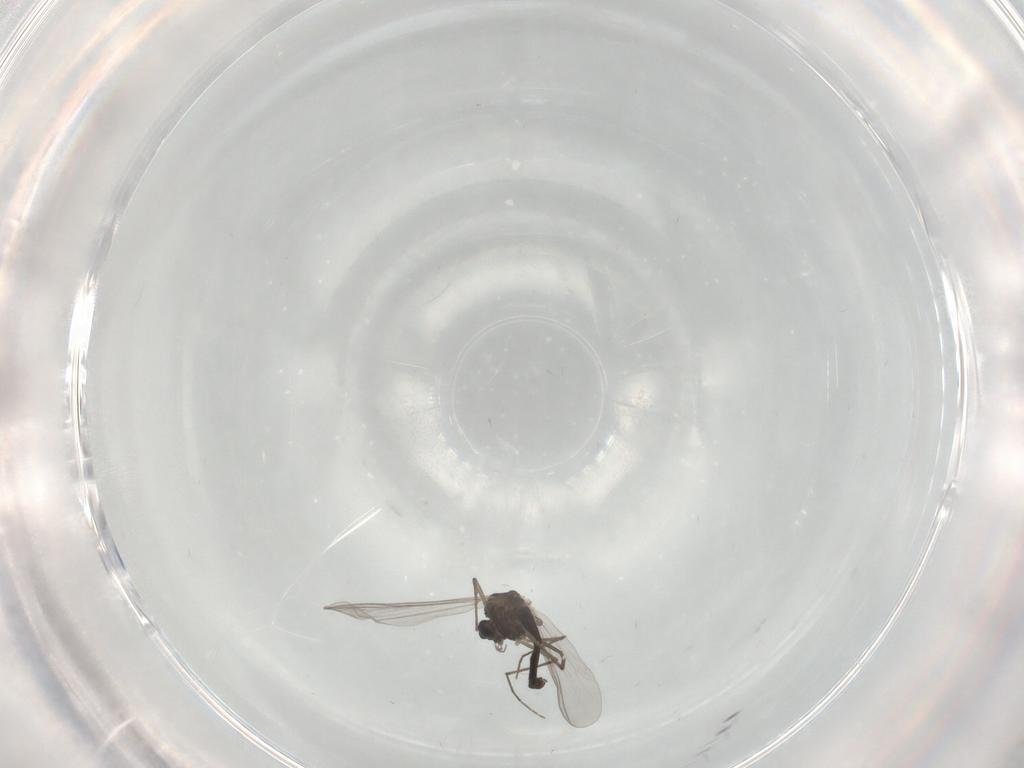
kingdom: Animalia
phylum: Arthropoda
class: Insecta
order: Diptera
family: Chironomidae
